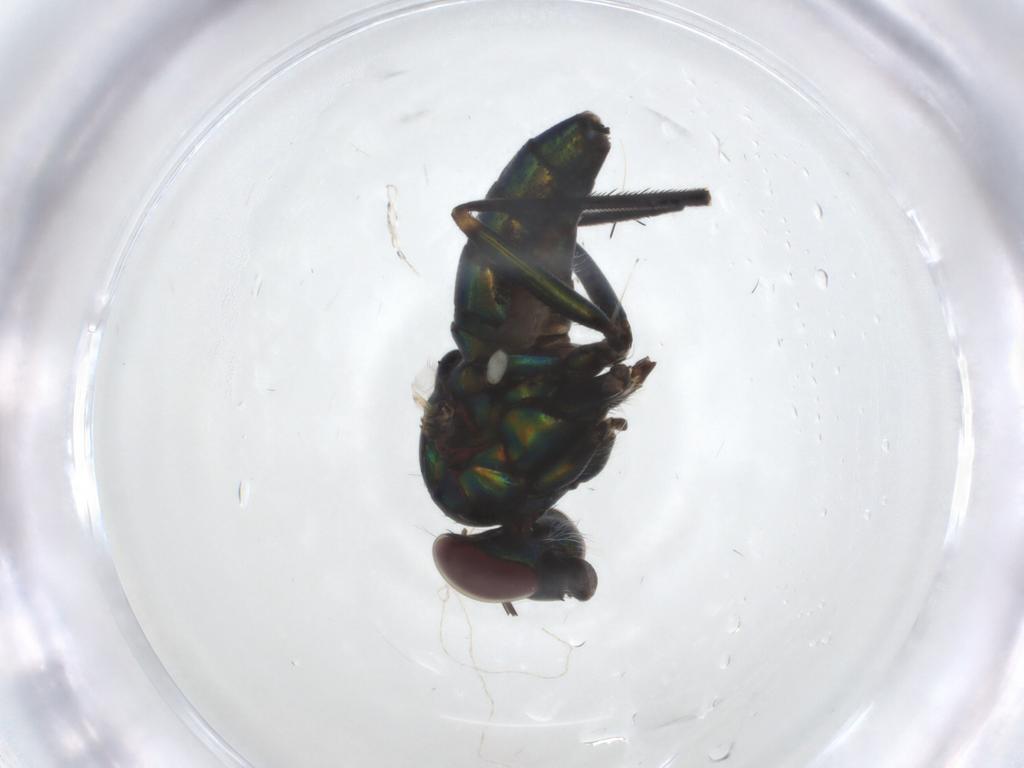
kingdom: Animalia
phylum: Arthropoda
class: Insecta
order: Diptera
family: Dolichopodidae
